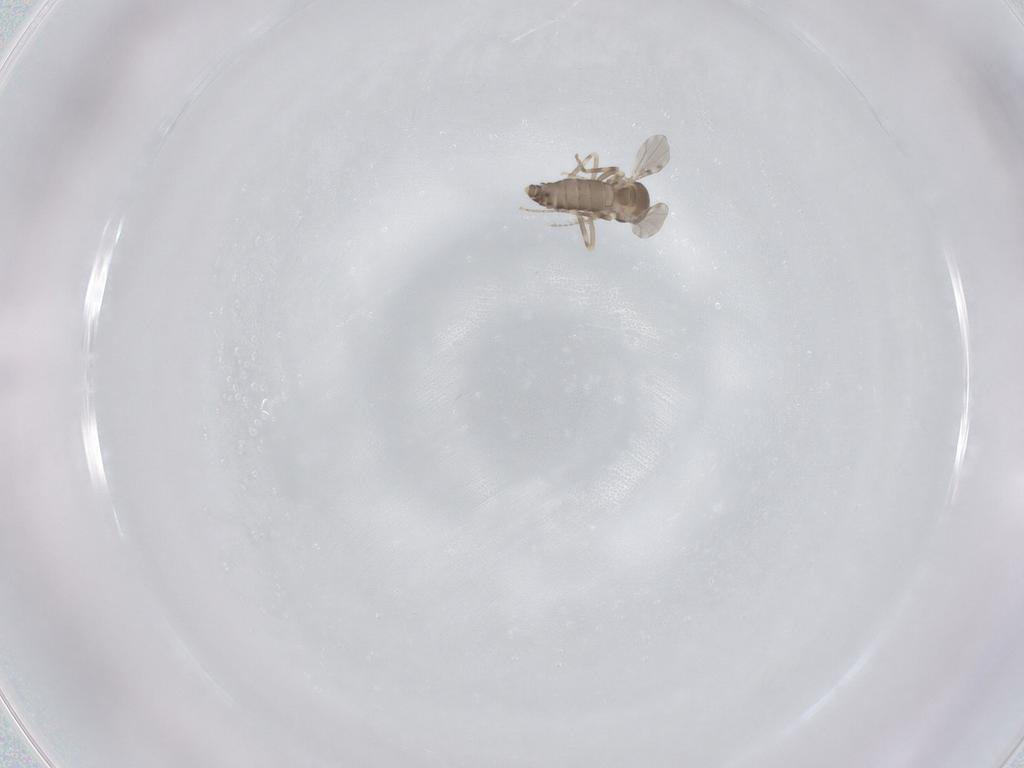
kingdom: Animalia
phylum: Arthropoda
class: Insecta
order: Diptera
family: Ceratopogonidae
